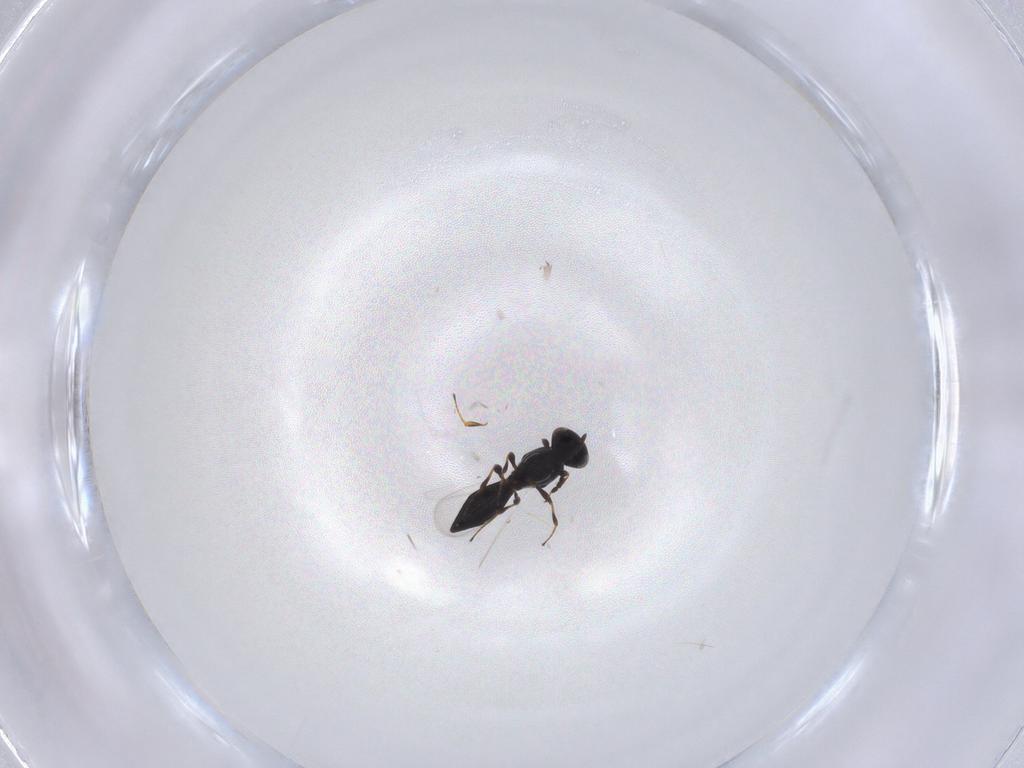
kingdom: Animalia
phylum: Arthropoda
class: Insecta
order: Hymenoptera
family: Platygastridae
